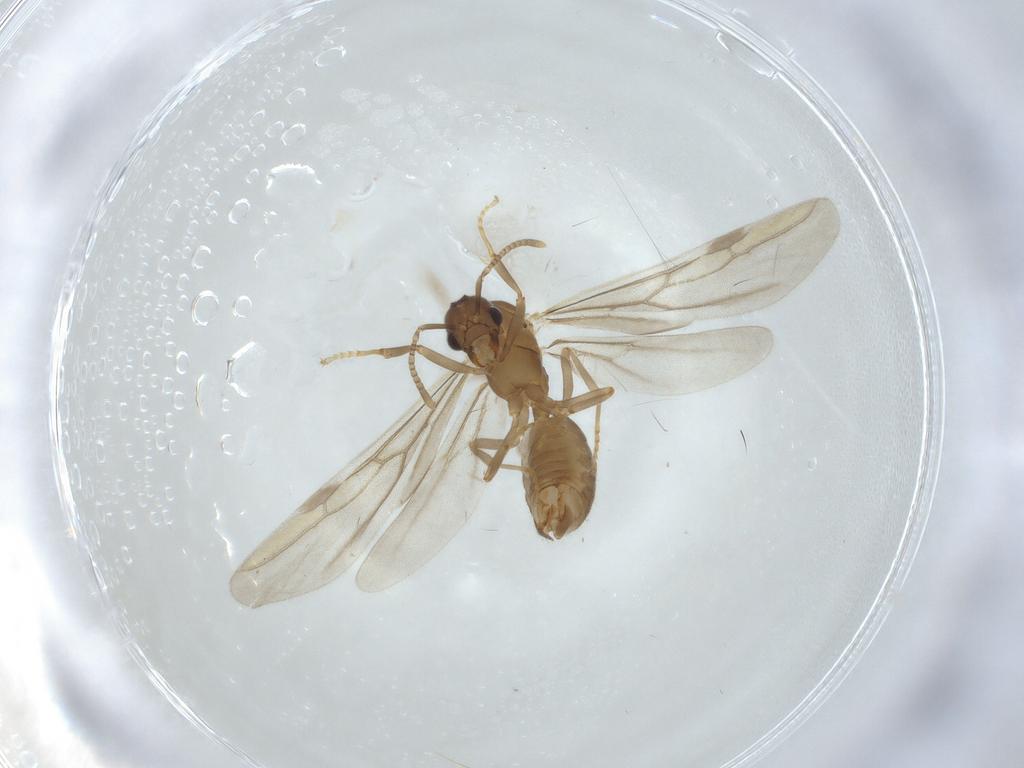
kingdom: Animalia
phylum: Arthropoda
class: Insecta
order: Hymenoptera
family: Formicidae
